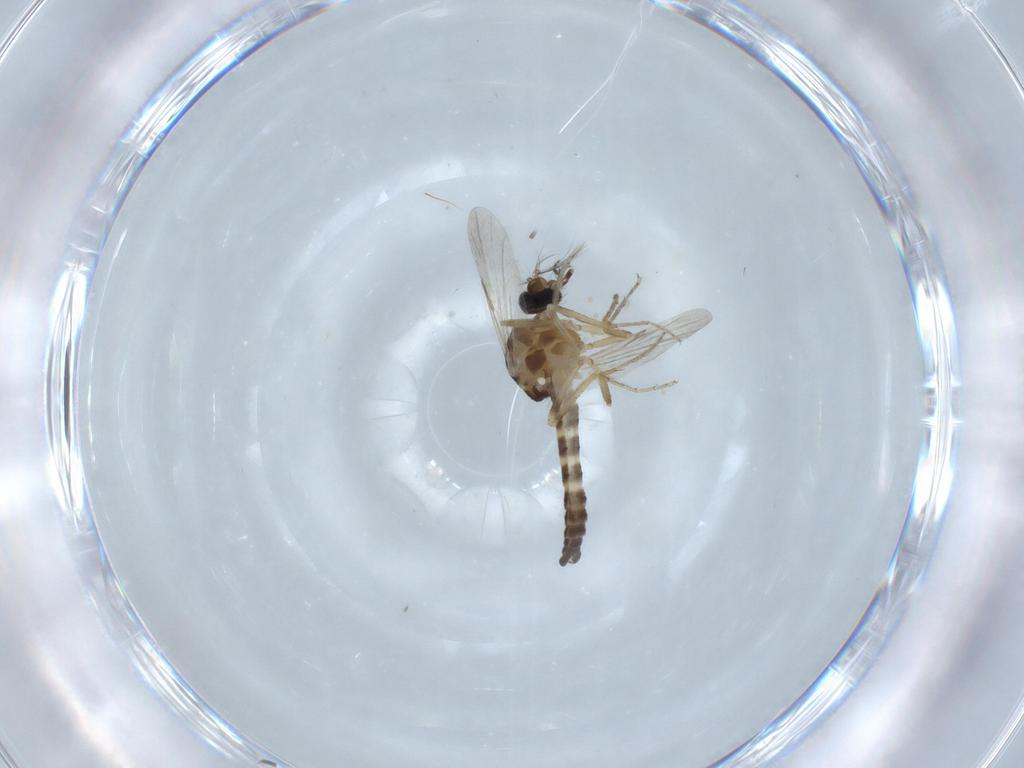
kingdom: Animalia
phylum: Arthropoda
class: Insecta
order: Diptera
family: Ceratopogonidae
